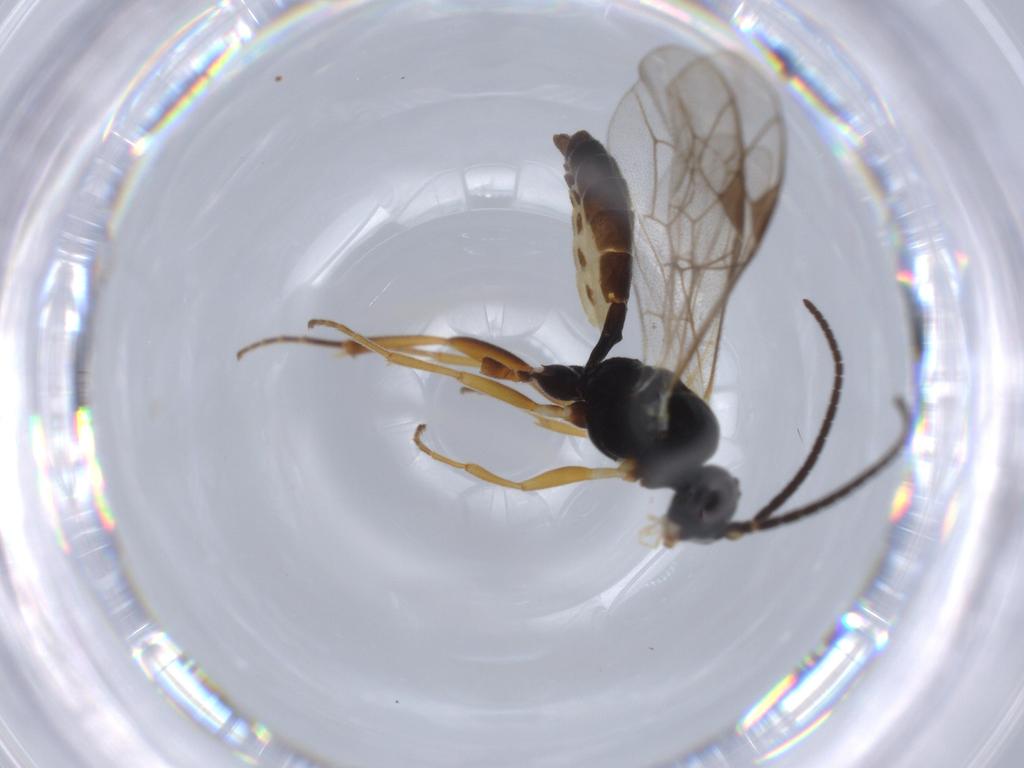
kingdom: Animalia
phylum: Arthropoda
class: Insecta
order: Hymenoptera
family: Ichneumonidae
